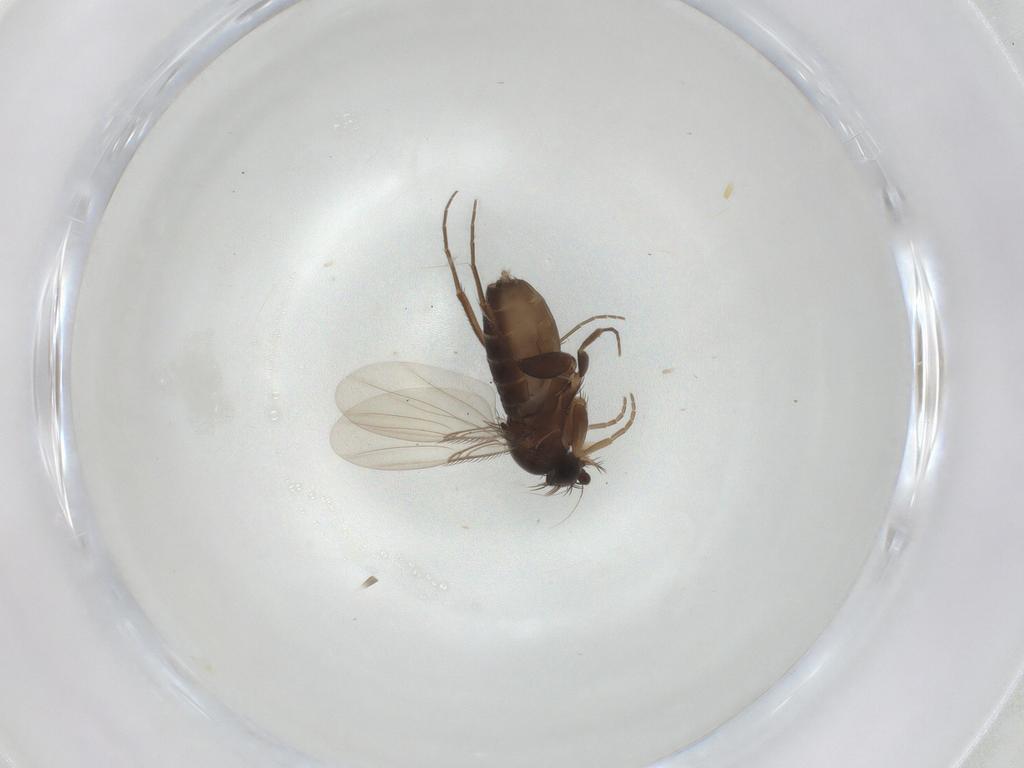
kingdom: Animalia
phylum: Arthropoda
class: Insecta
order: Diptera
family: Phoridae
